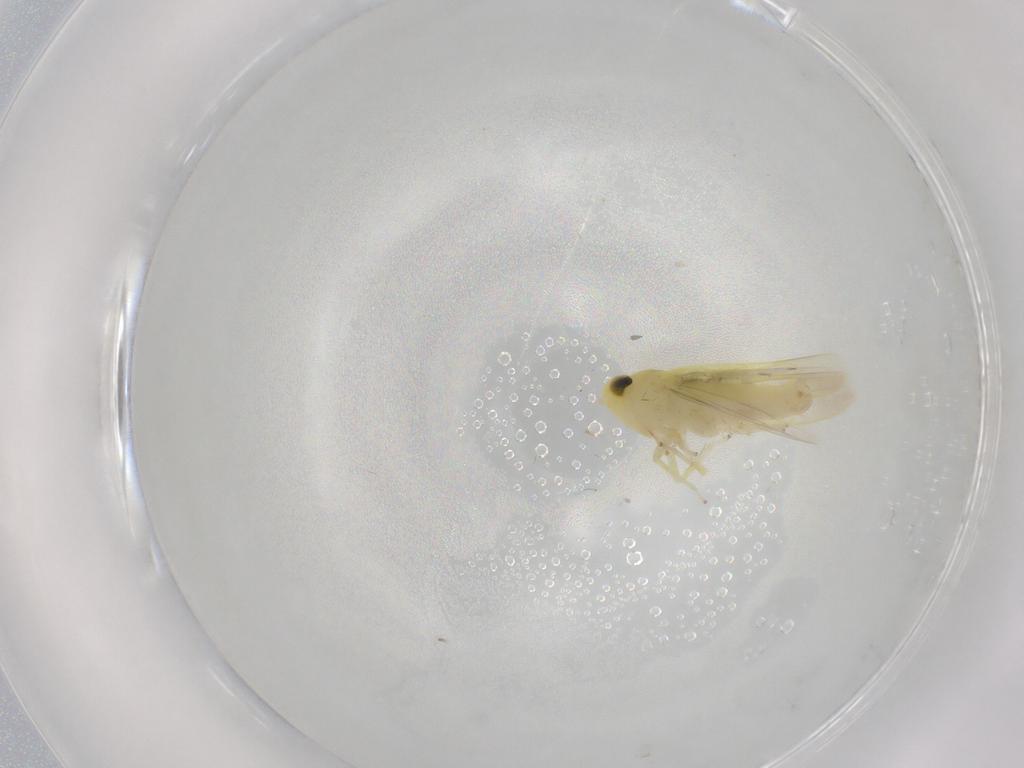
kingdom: Animalia
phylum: Arthropoda
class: Insecta
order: Hemiptera
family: Cicadellidae
